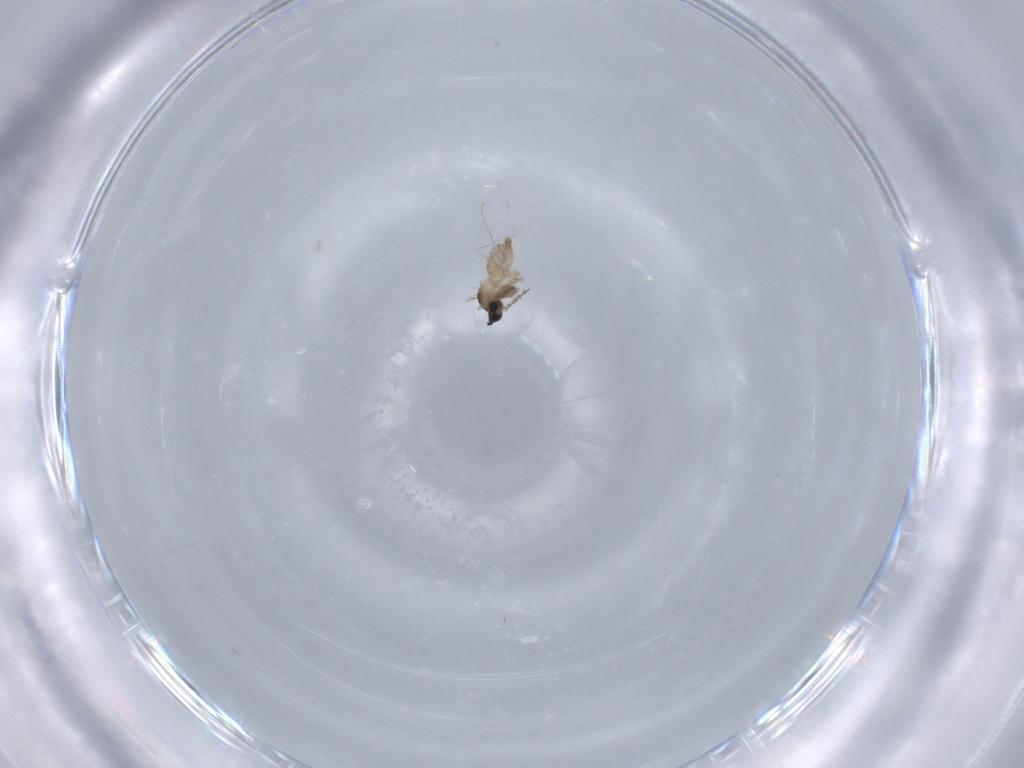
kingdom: Animalia
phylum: Arthropoda
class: Insecta
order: Diptera
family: Cecidomyiidae
